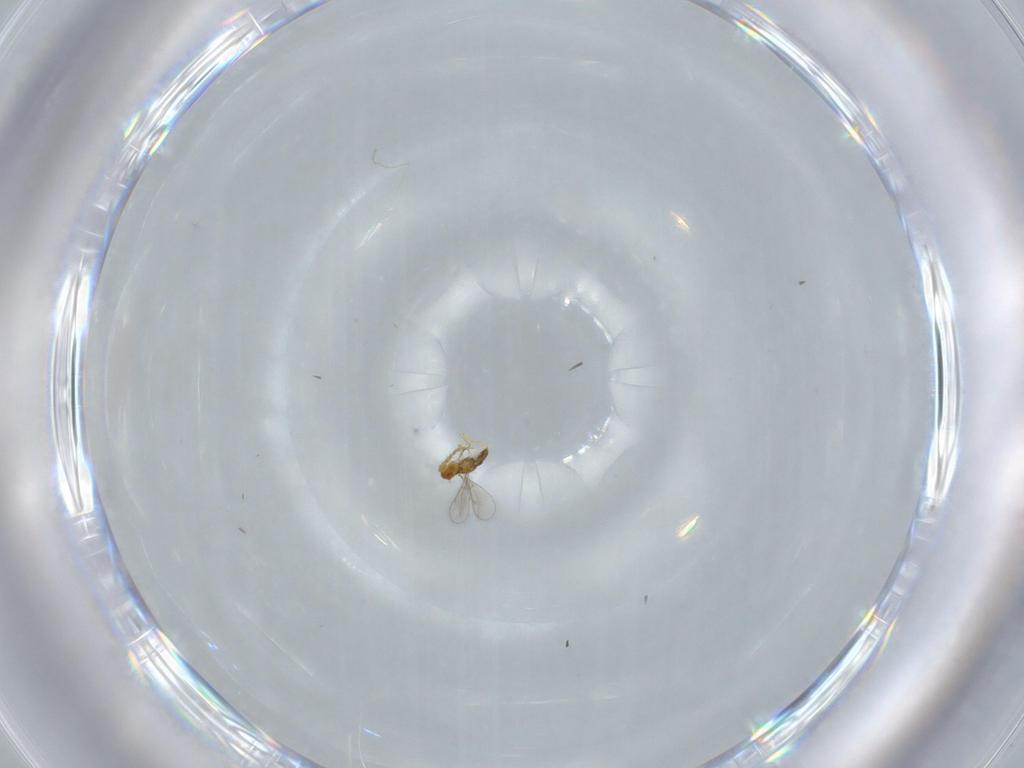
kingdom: Animalia
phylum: Arthropoda
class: Insecta
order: Hymenoptera
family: Aphelinidae
